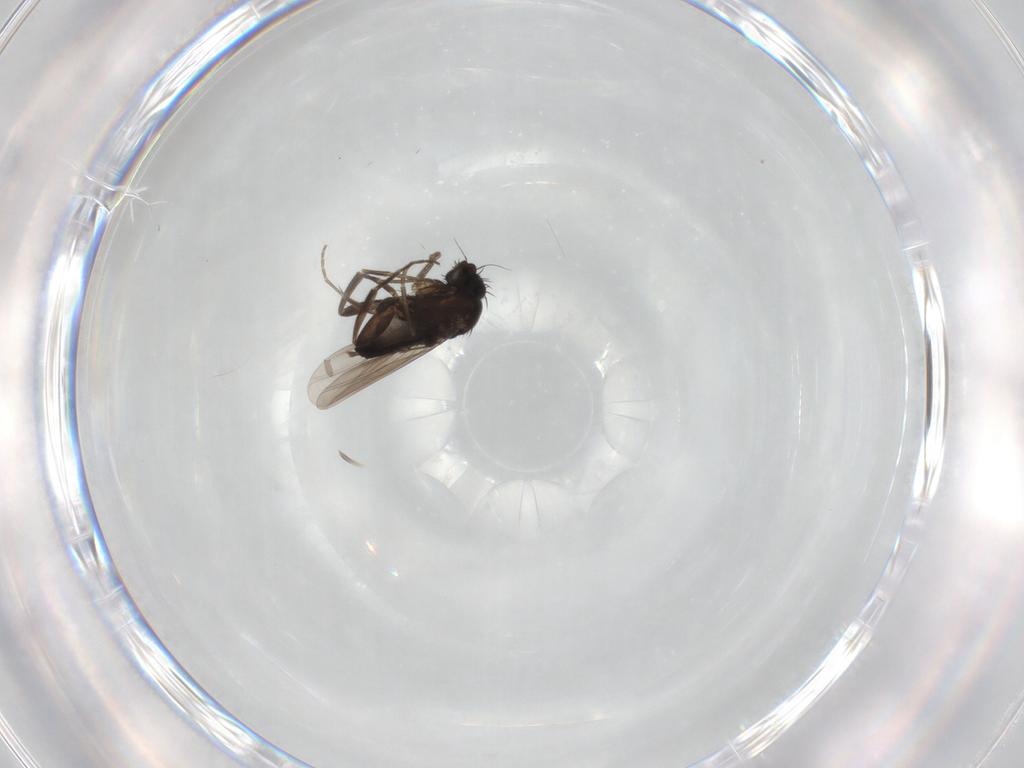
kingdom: Animalia
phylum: Arthropoda
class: Insecta
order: Diptera
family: Phoridae
